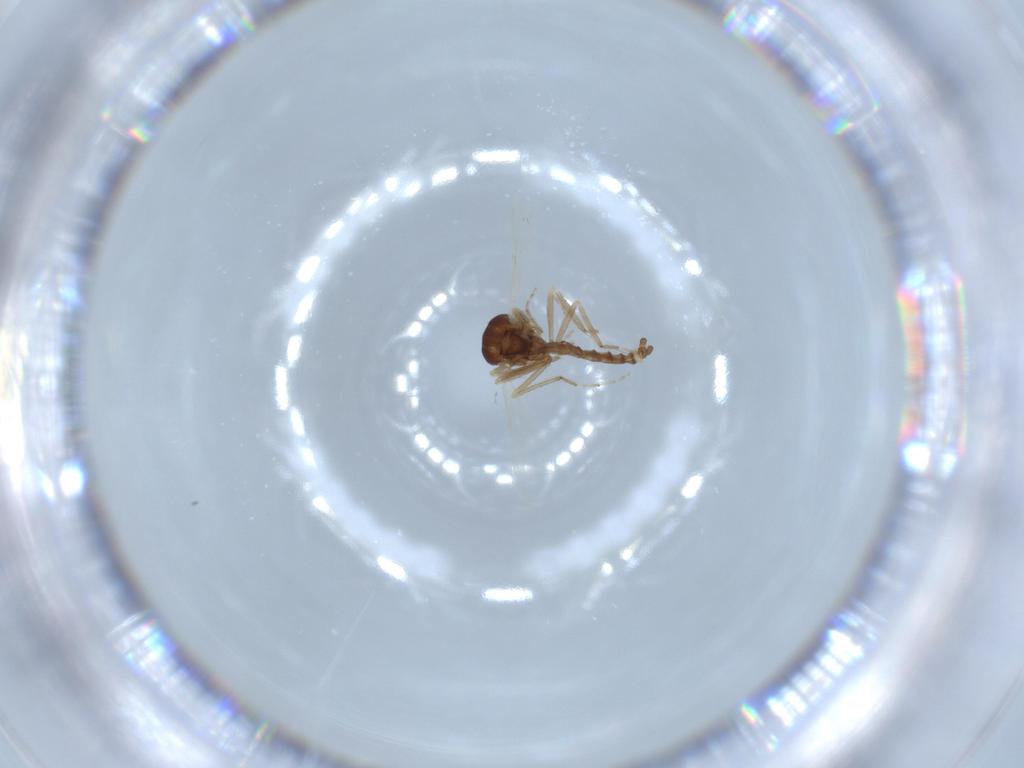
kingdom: Animalia
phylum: Arthropoda
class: Insecta
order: Diptera
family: Ceratopogonidae
